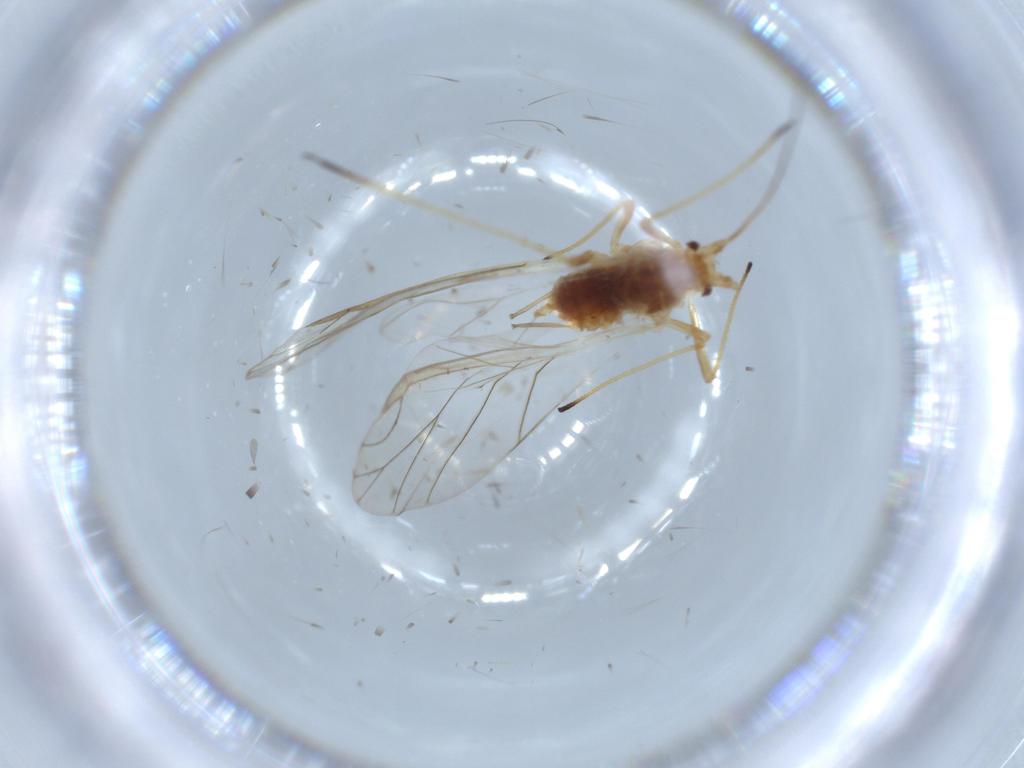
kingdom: Animalia
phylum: Arthropoda
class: Insecta
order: Hemiptera
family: Aphididae
